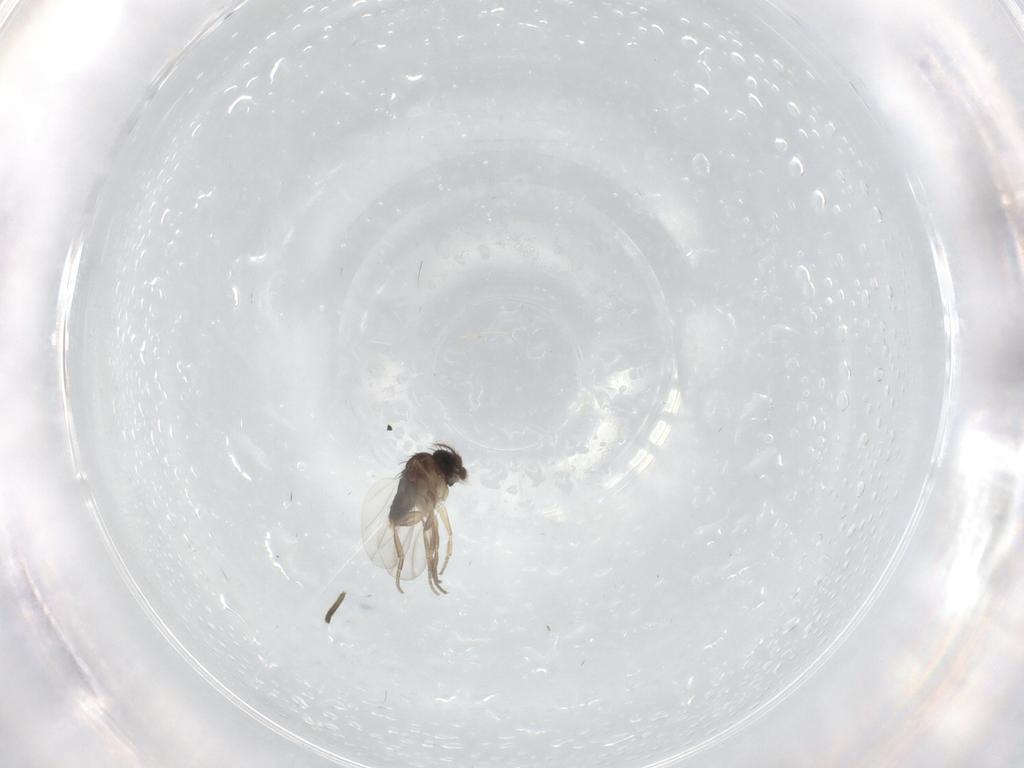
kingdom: Animalia
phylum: Arthropoda
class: Insecta
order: Diptera
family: Phoridae
